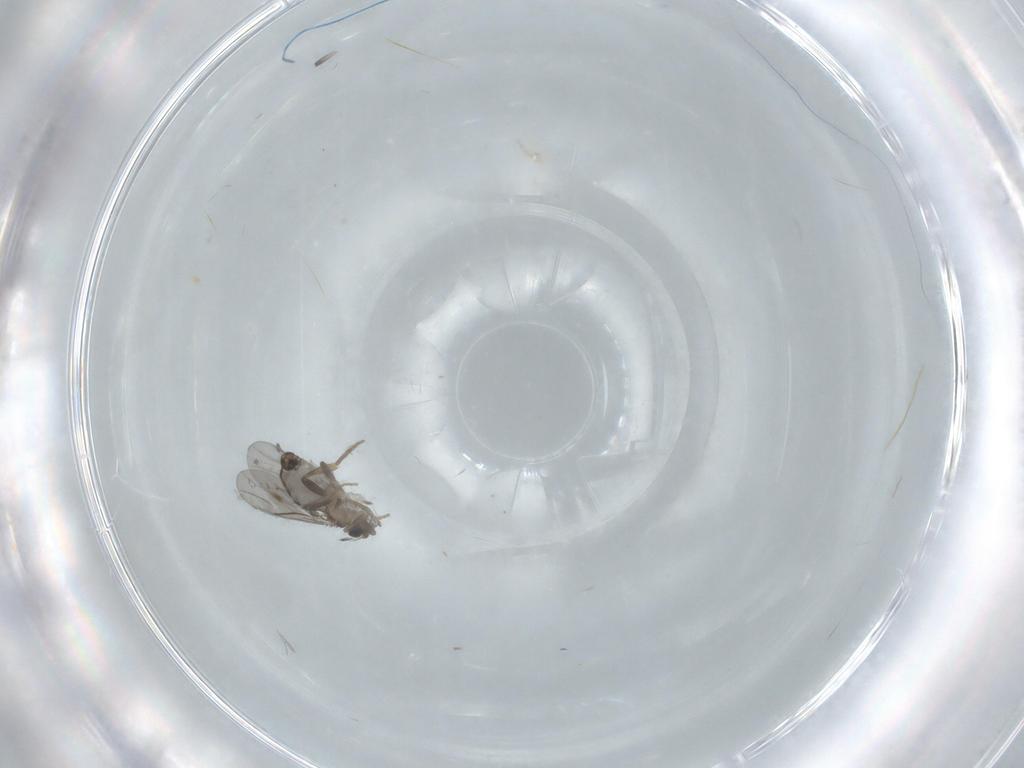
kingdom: Animalia
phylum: Arthropoda
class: Insecta
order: Diptera
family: Chironomidae
